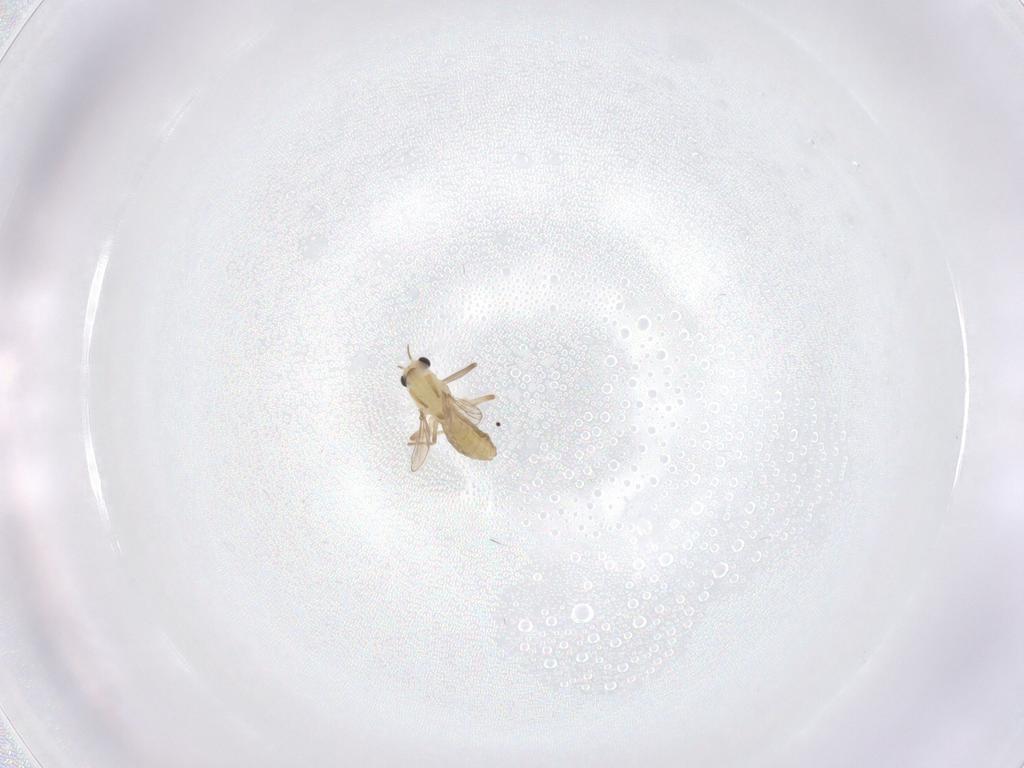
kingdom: Animalia
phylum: Arthropoda
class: Insecta
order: Diptera
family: Chironomidae
